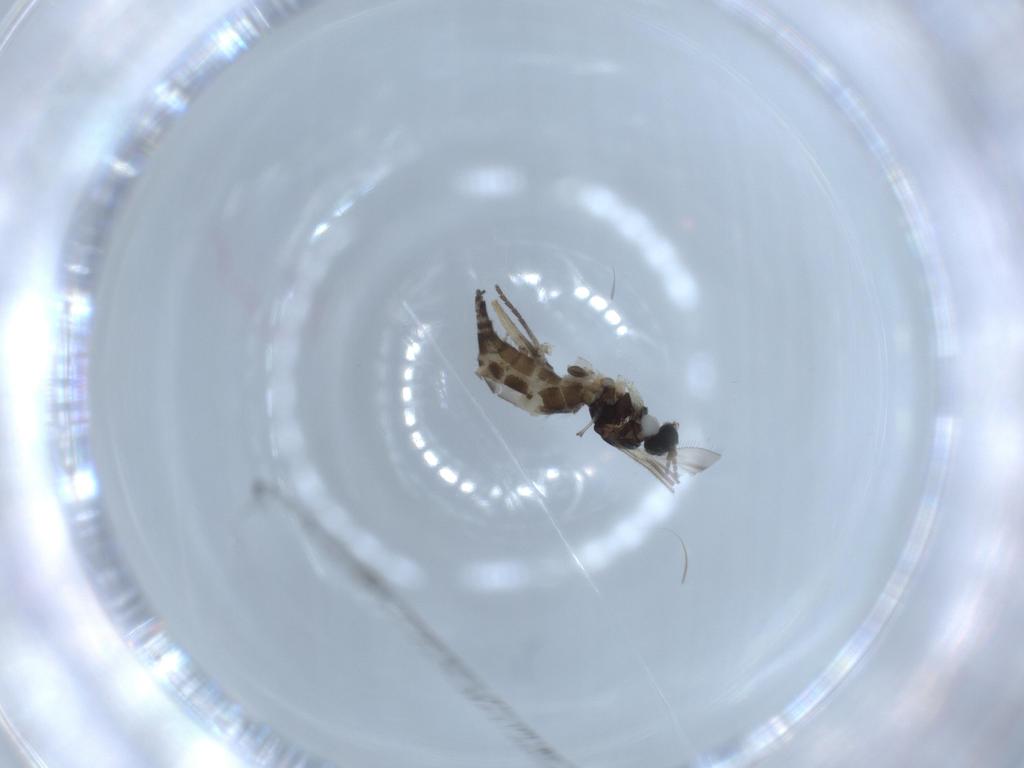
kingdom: Animalia
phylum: Arthropoda
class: Insecta
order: Diptera
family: Sciaridae
